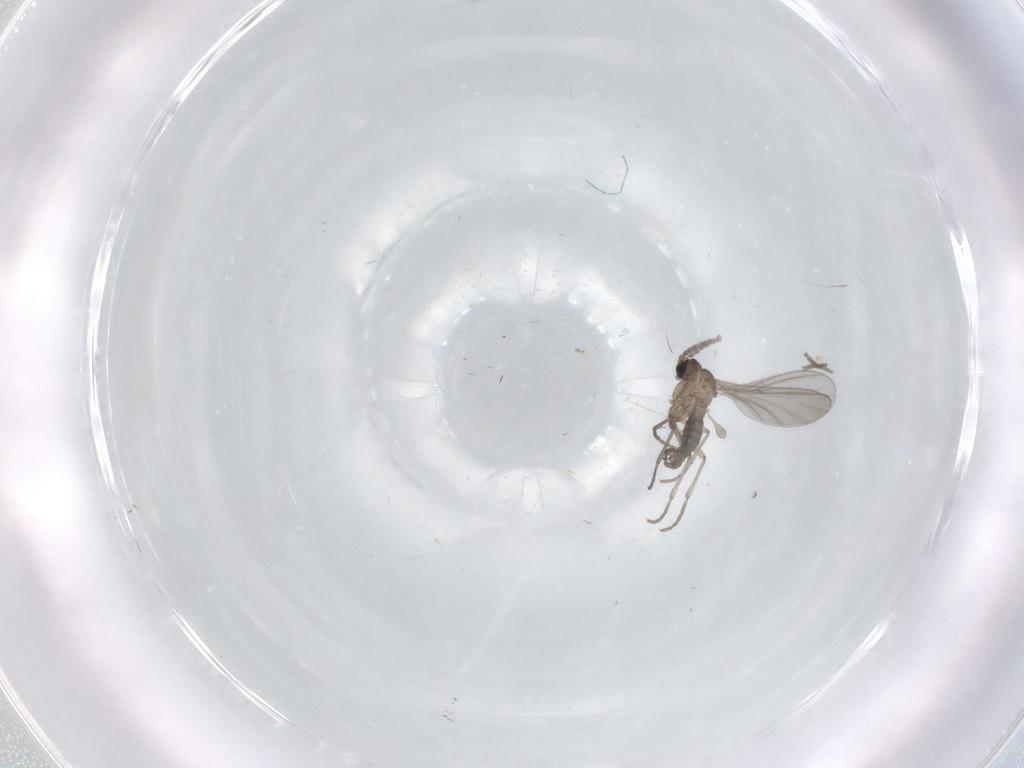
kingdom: Animalia
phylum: Arthropoda
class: Insecta
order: Diptera
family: Sciaridae
